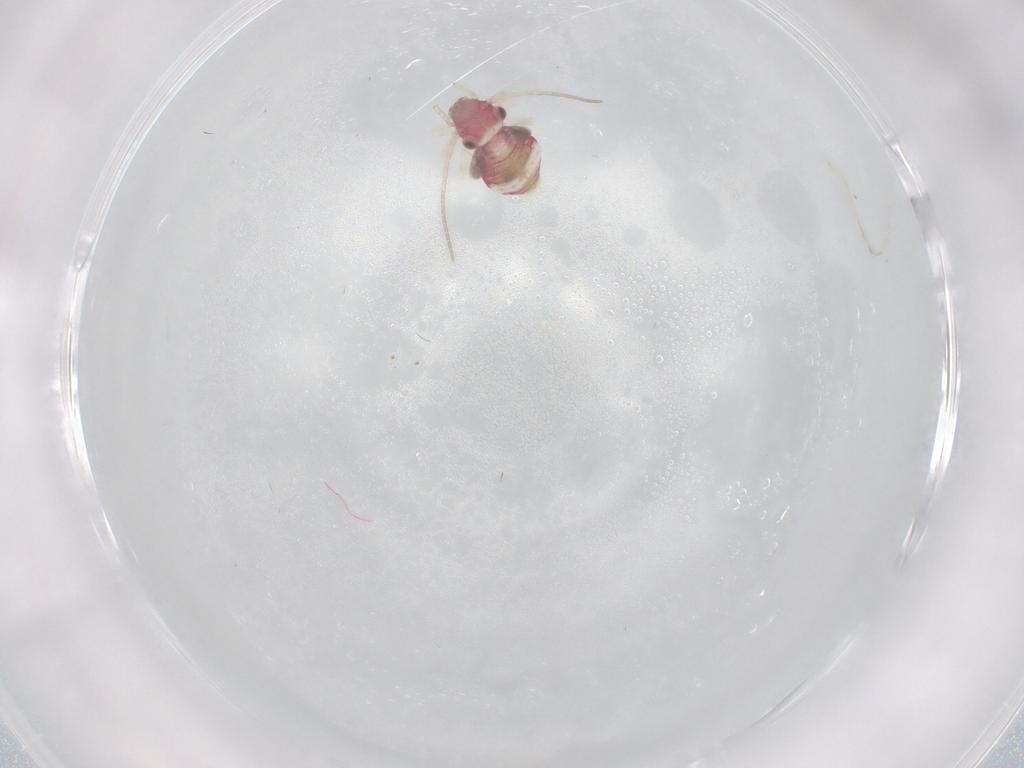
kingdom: Animalia
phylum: Arthropoda
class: Insecta
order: Psocodea
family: Caeciliusidae
